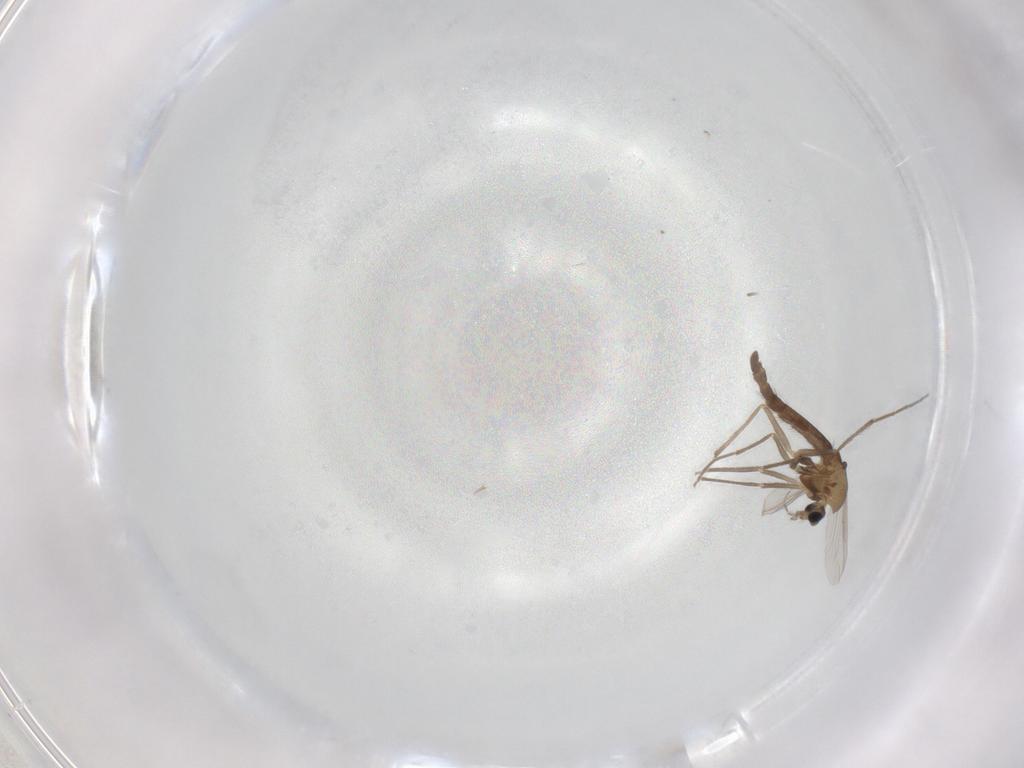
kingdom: Animalia
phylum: Arthropoda
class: Insecta
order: Diptera
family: Chironomidae
